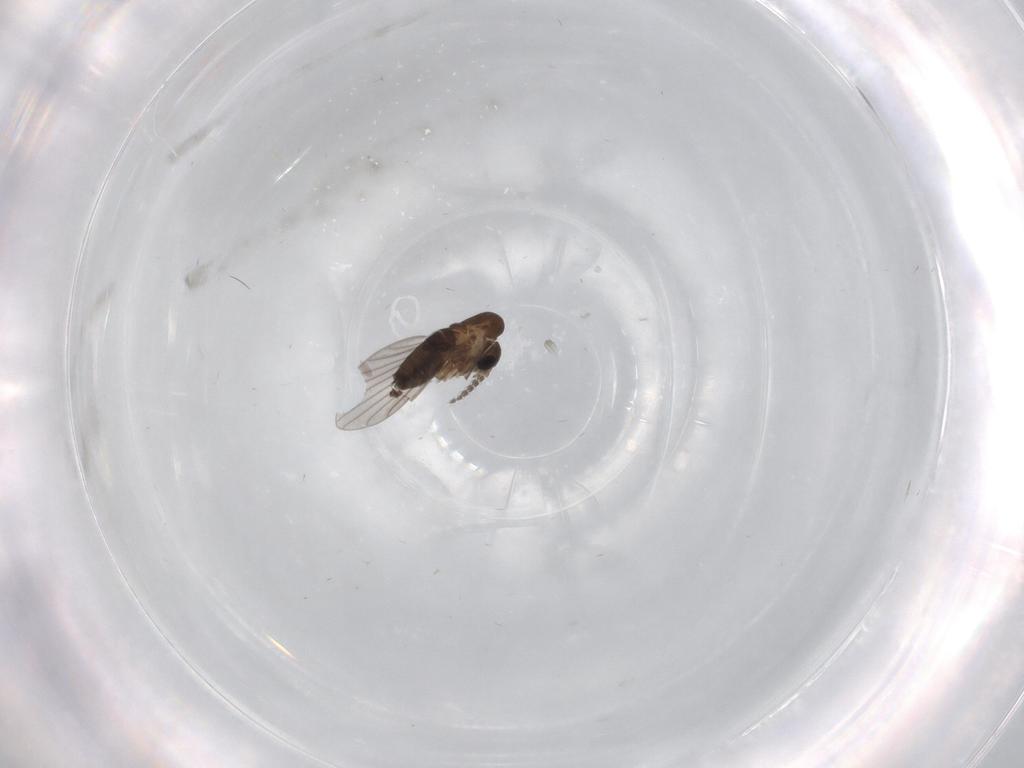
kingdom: Animalia
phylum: Arthropoda
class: Insecta
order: Diptera
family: Psychodidae
